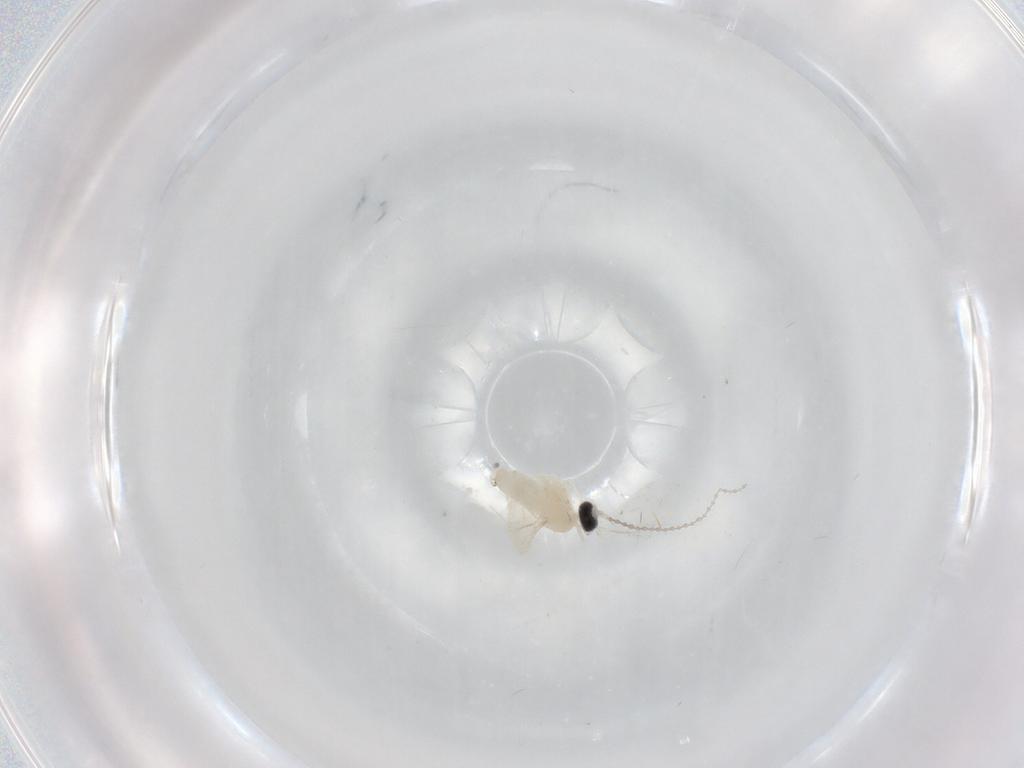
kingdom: Animalia
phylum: Arthropoda
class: Insecta
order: Diptera
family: Cecidomyiidae
